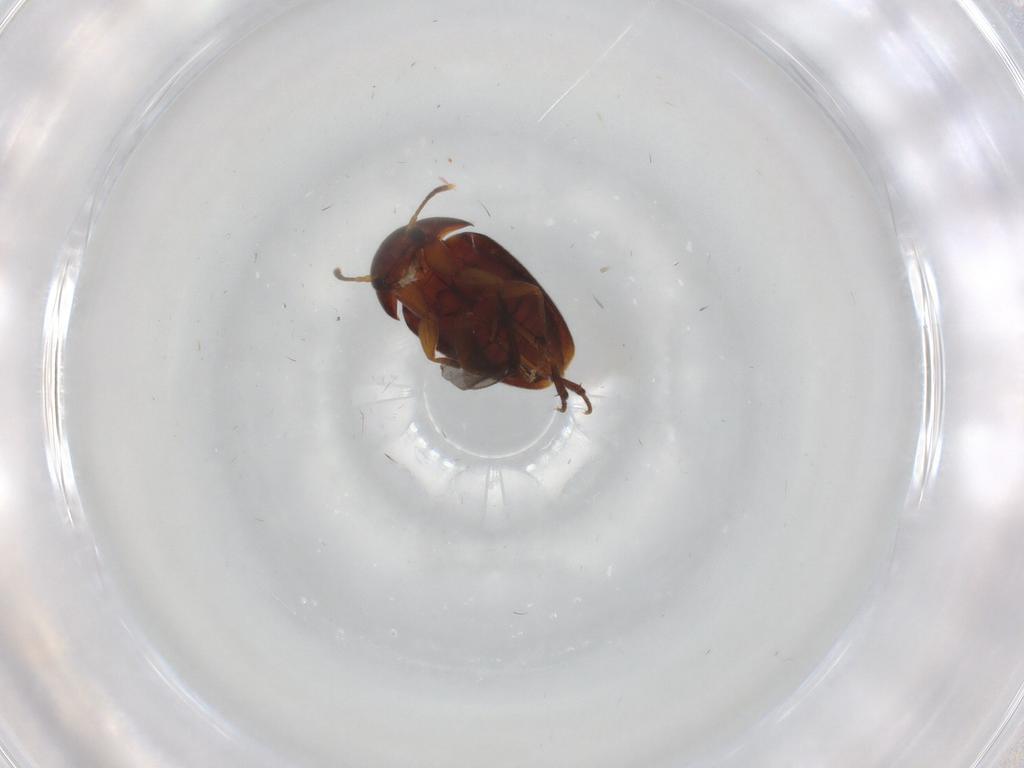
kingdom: Animalia
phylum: Arthropoda
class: Insecta
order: Coleoptera
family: Leiodidae
